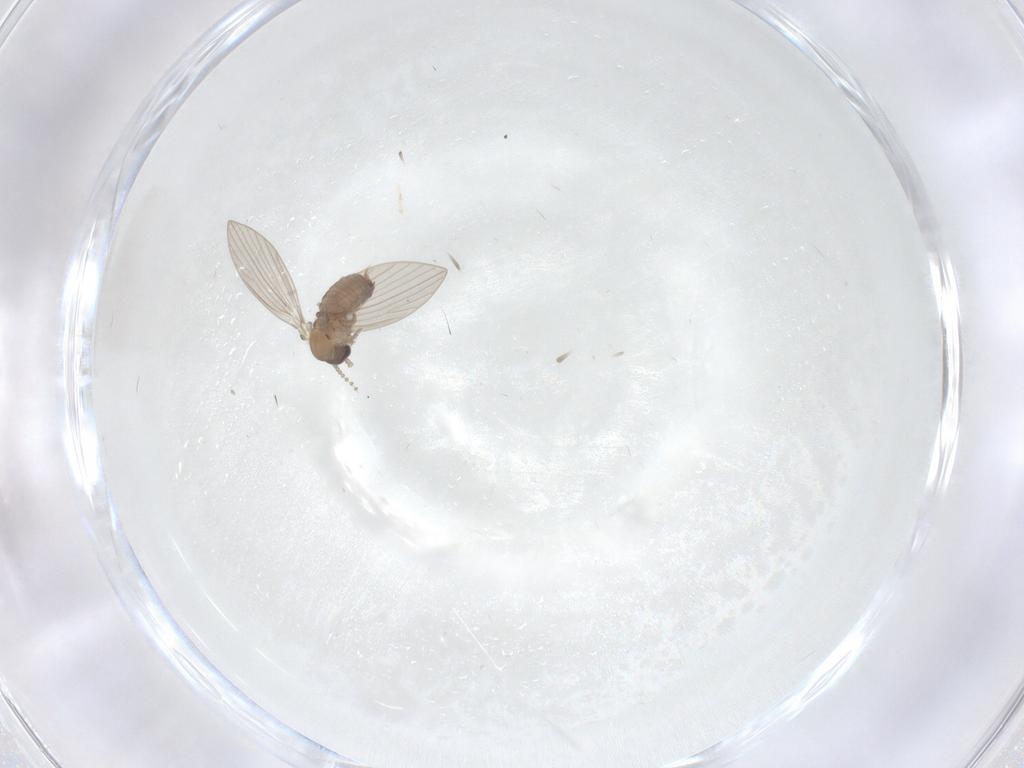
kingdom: Animalia
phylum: Arthropoda
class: Insecta
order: Diptera
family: Psychodidae
